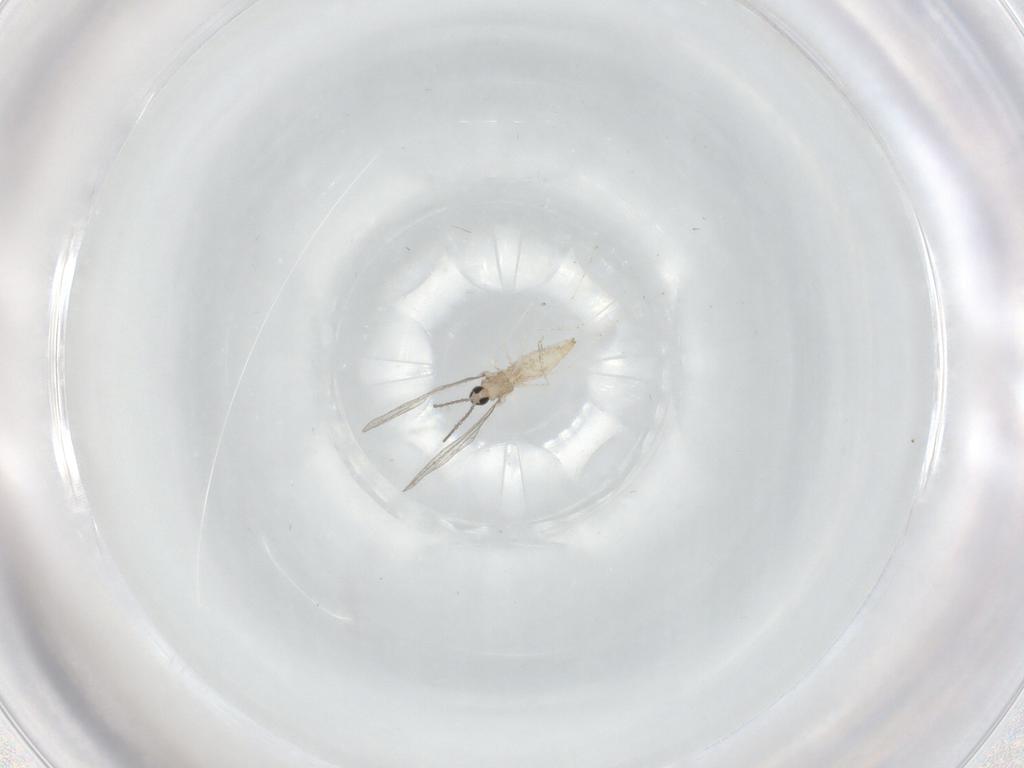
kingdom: Animalia
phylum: Arthropoda
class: Insecta
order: Diptera
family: Cecidomyiidae
